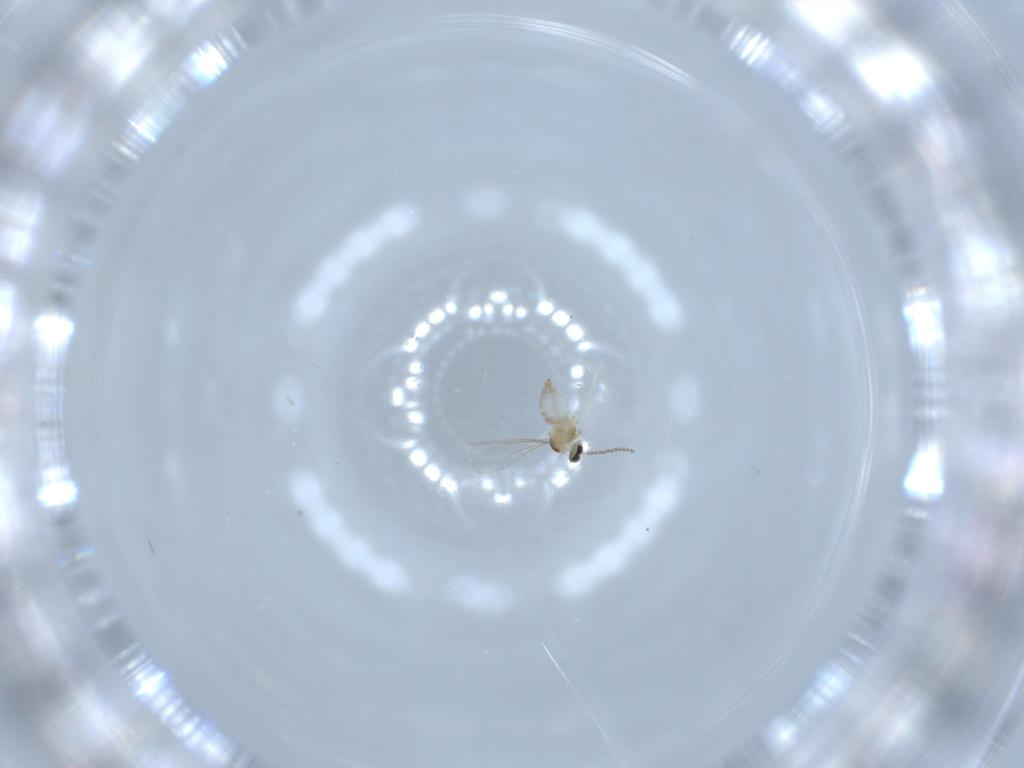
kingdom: Animalia
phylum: Arthropoda
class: Insecta
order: Diptera
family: Cecidomyiidae
